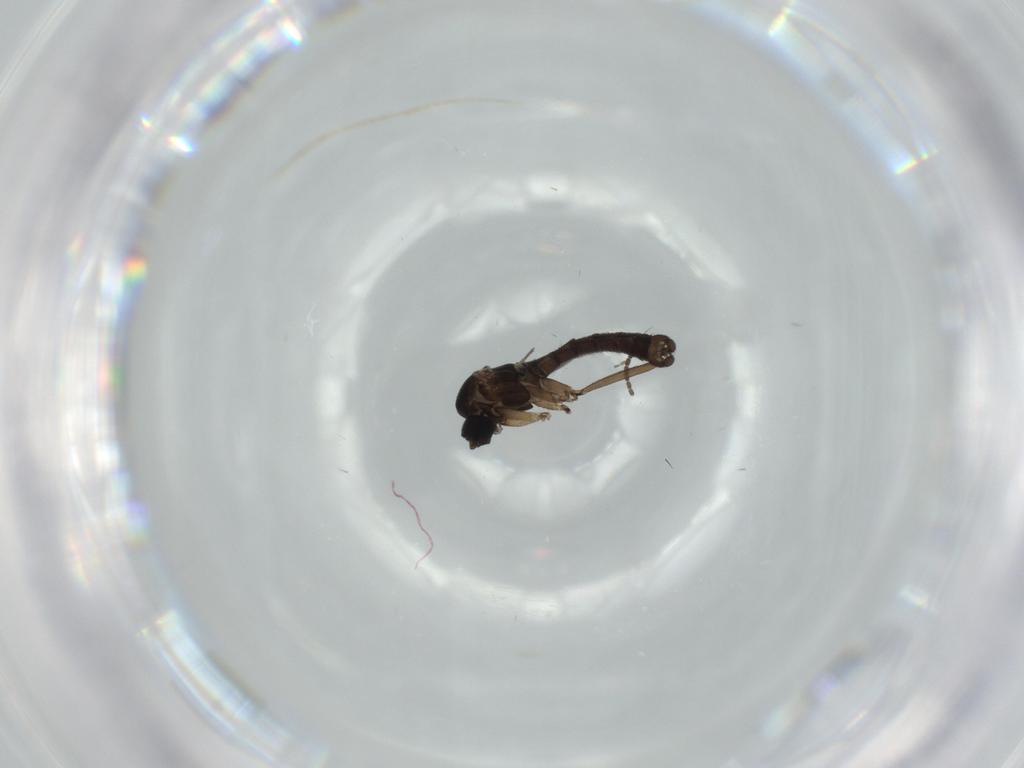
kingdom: Animalia
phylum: Arthropoda
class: Insecta
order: Diptera
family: Sciaridae
